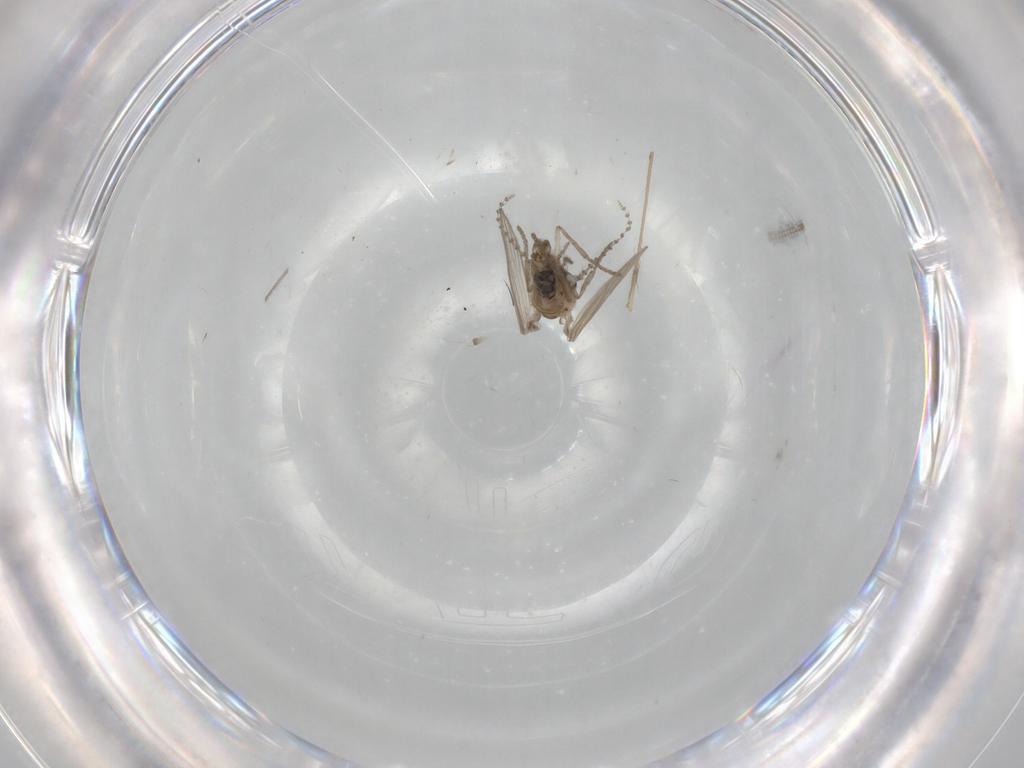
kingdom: Animalia
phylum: Arthropoda
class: Insecta
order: Diptera
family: Psychodidae
